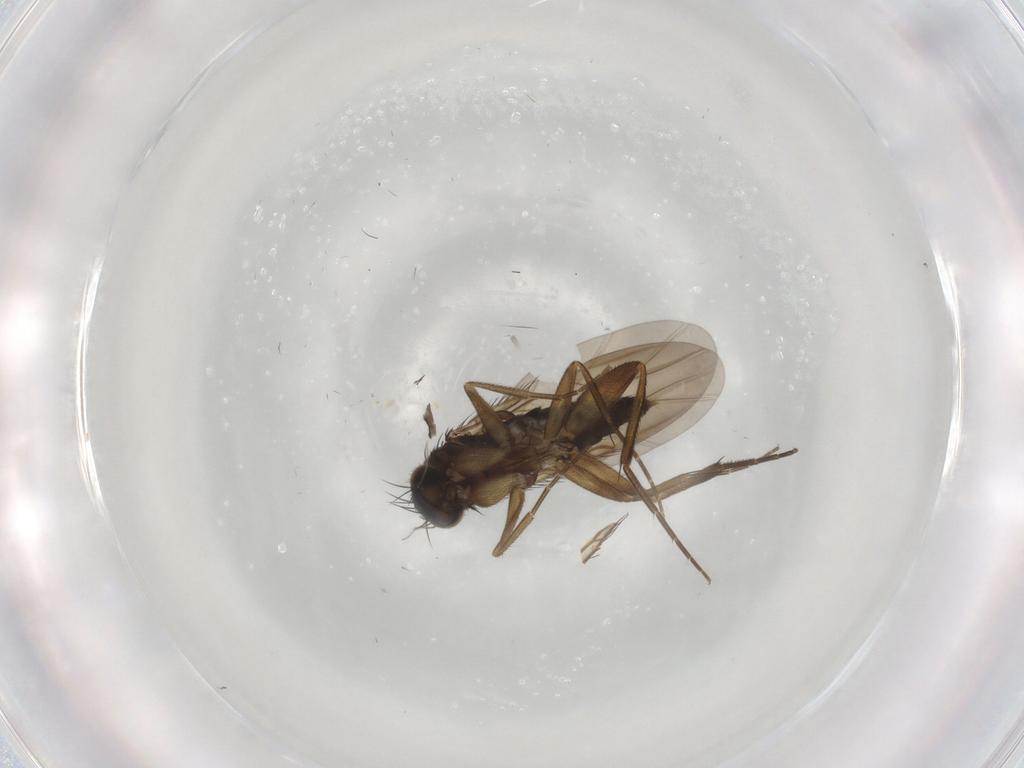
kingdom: Animalia
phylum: Arthropoda
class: Insecta
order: Diptera
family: Phoridae
